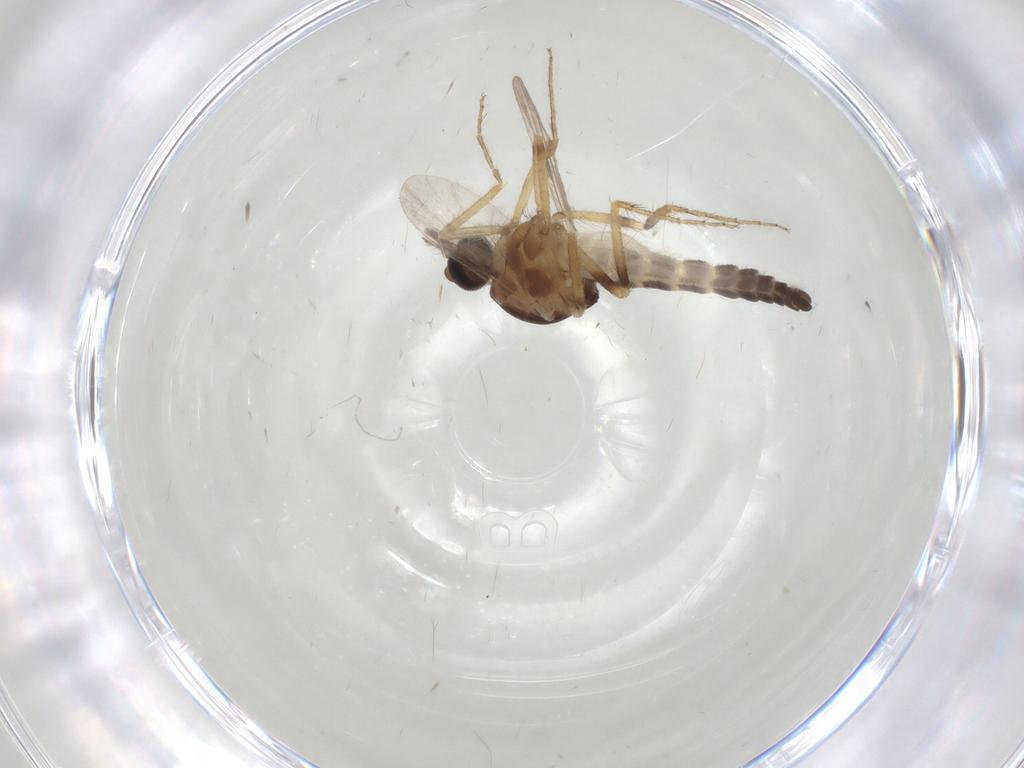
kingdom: Animalia
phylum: Arthropoda
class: Insecta
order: Diptera
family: Ceratopogonidae
